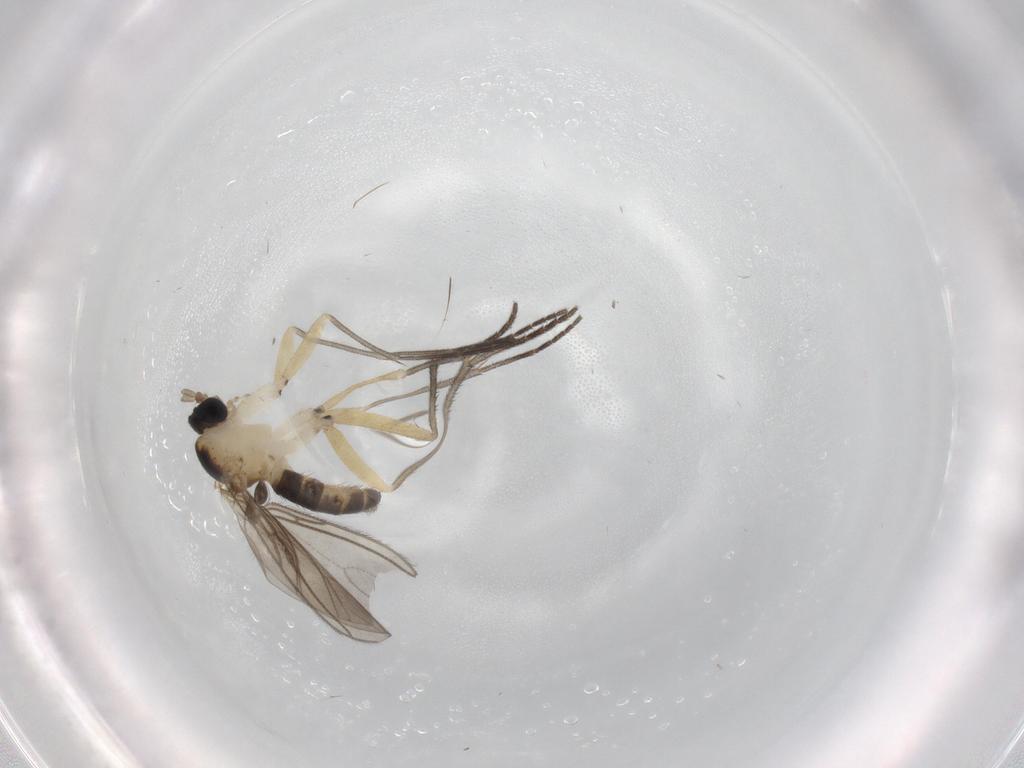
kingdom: Animalia
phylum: Arthropoda
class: Insecta
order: Diptera
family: Sciaridae
